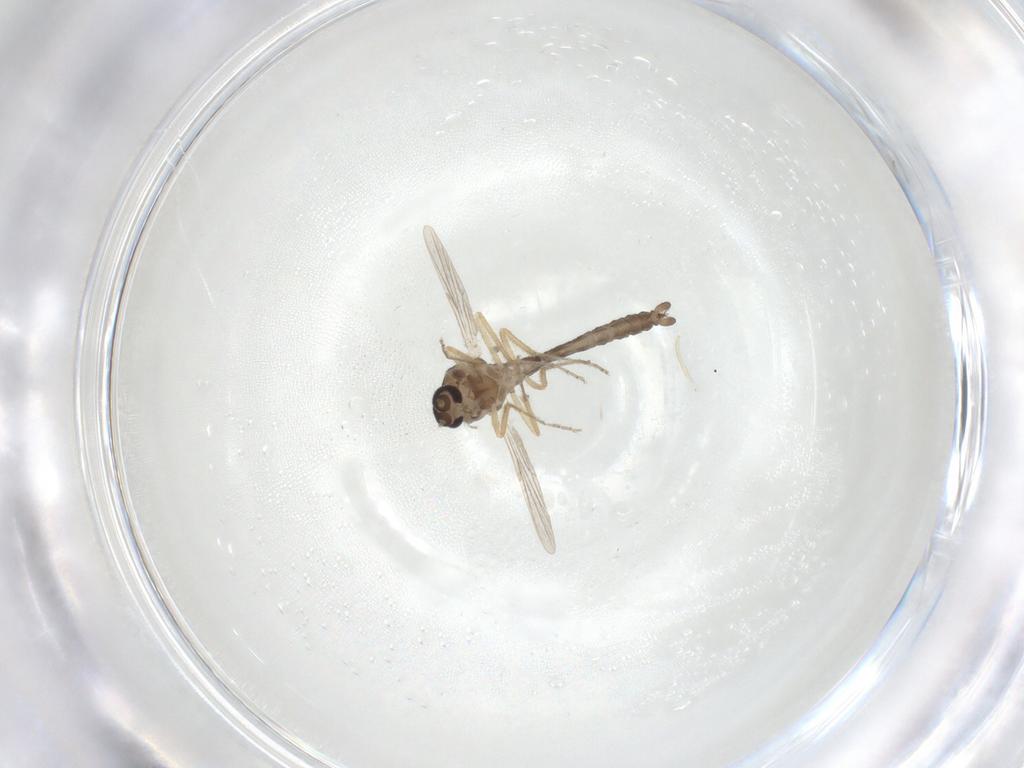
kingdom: Animalia
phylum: Arthropoda
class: Insecta
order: Diptera
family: Ceratopogonidae
